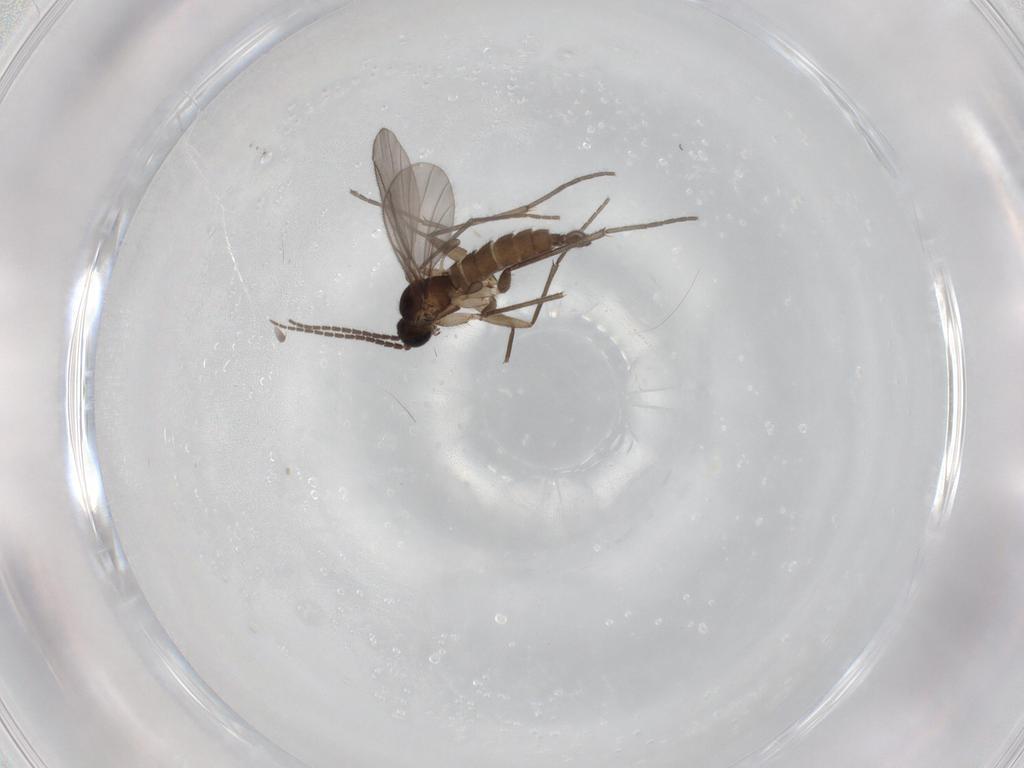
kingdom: Animalia
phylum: Arthropoda
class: Insecta
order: Diptera
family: Sciaridae
